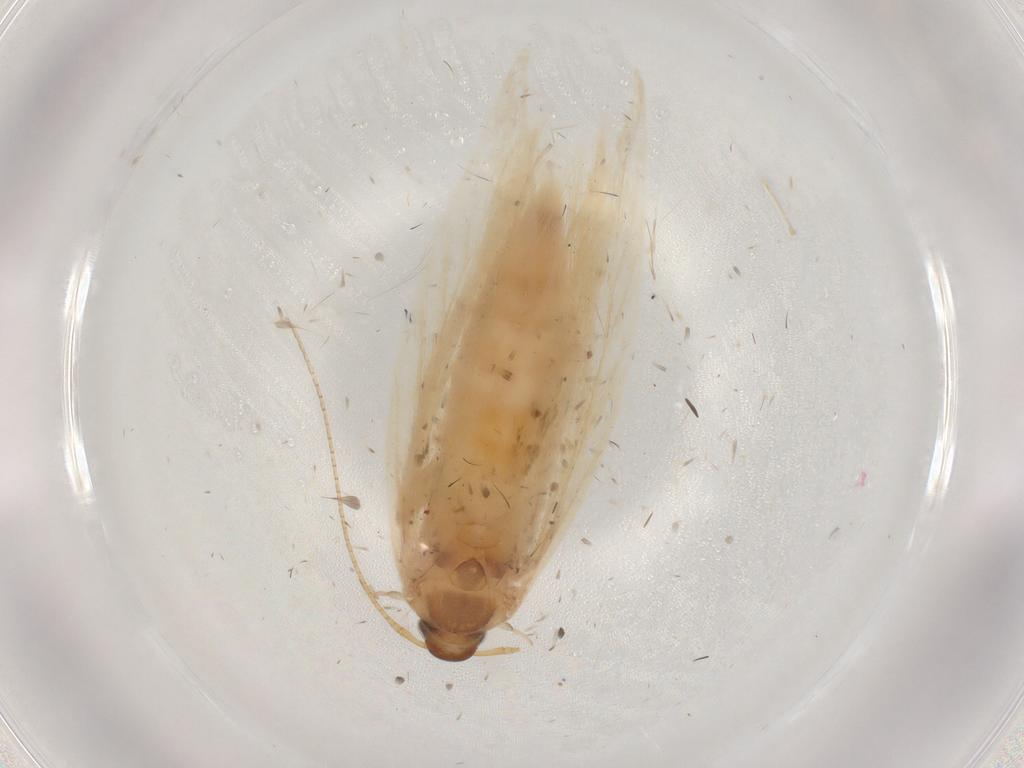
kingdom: Animalia
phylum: Arthropoda
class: Insecta
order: Lepidoptera
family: Gelechiidae
